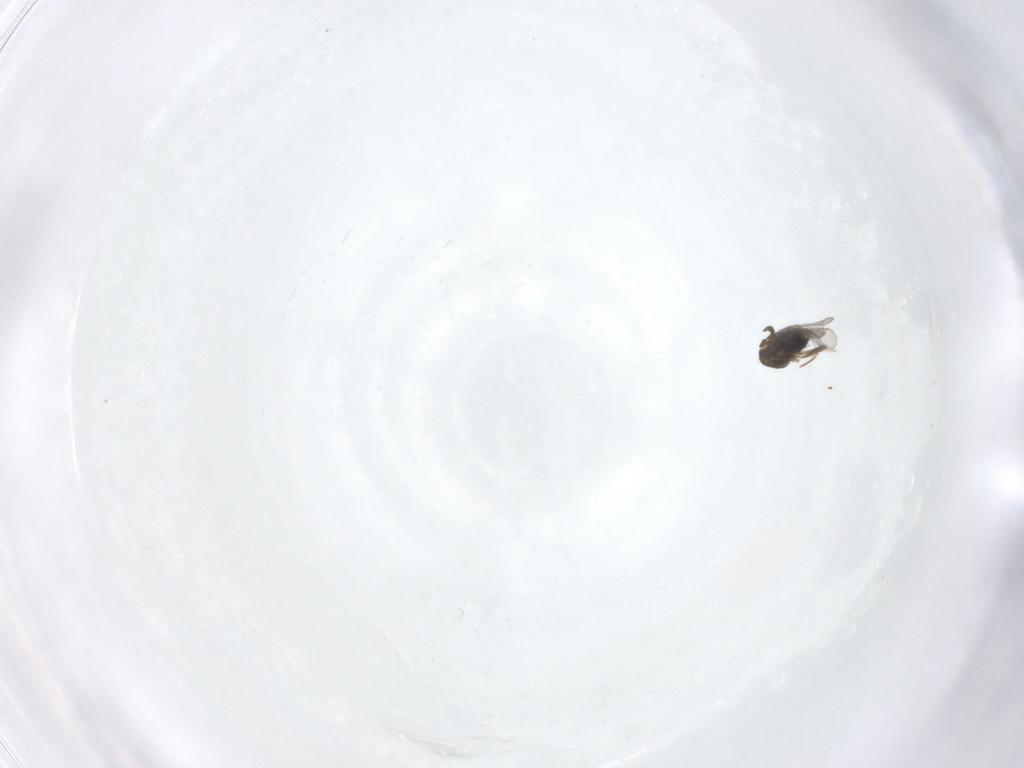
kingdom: Animalia
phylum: Arthropoda
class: Insecta
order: Hymenoptera
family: Trichogrammatidae
